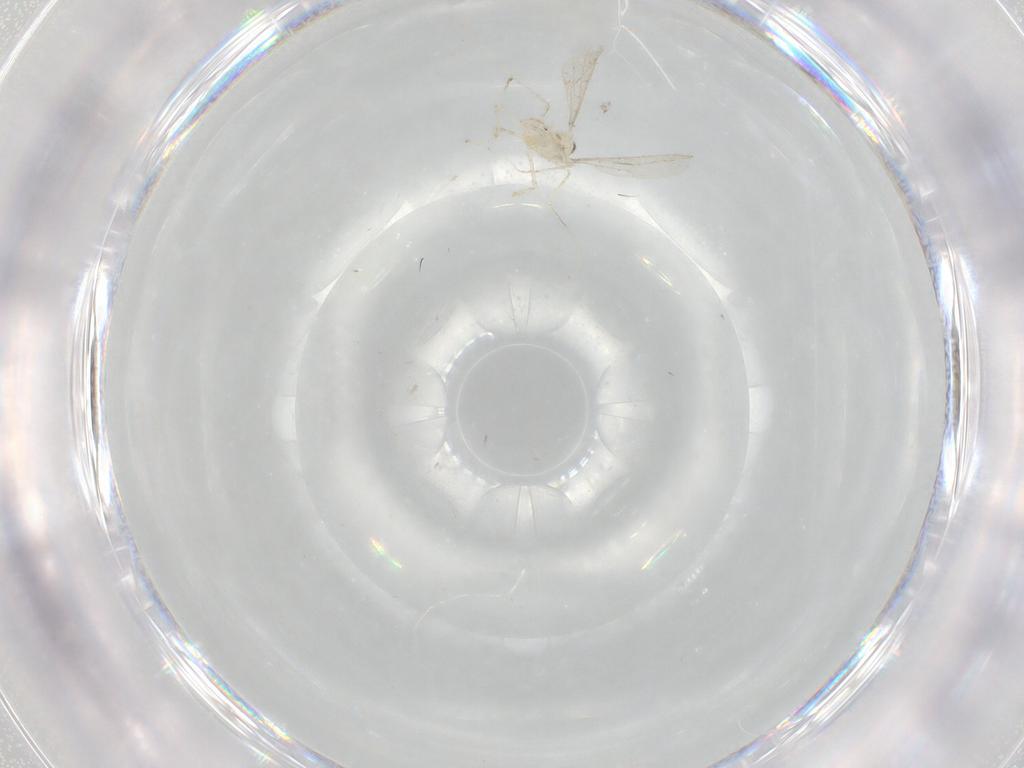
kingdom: Animalia
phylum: Arthropoda
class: Insecta
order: Diptera
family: Cecidomyiidae
